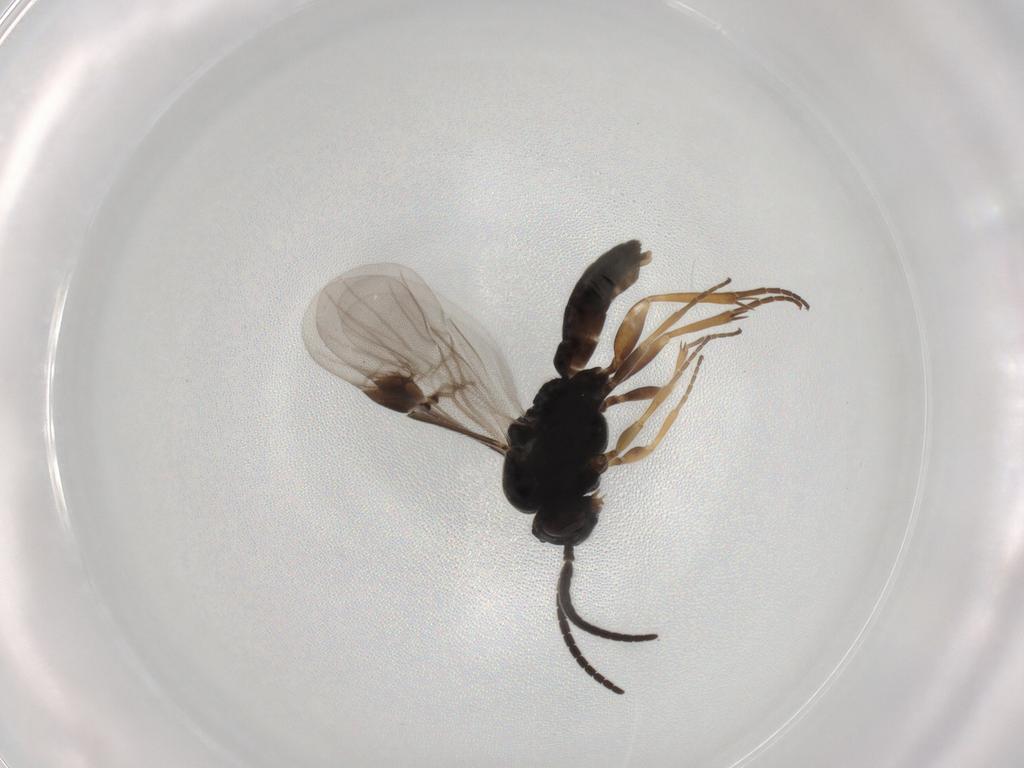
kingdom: Animalia
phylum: Arthropoda
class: Insecta
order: Hymenoptera
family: Braconidae
